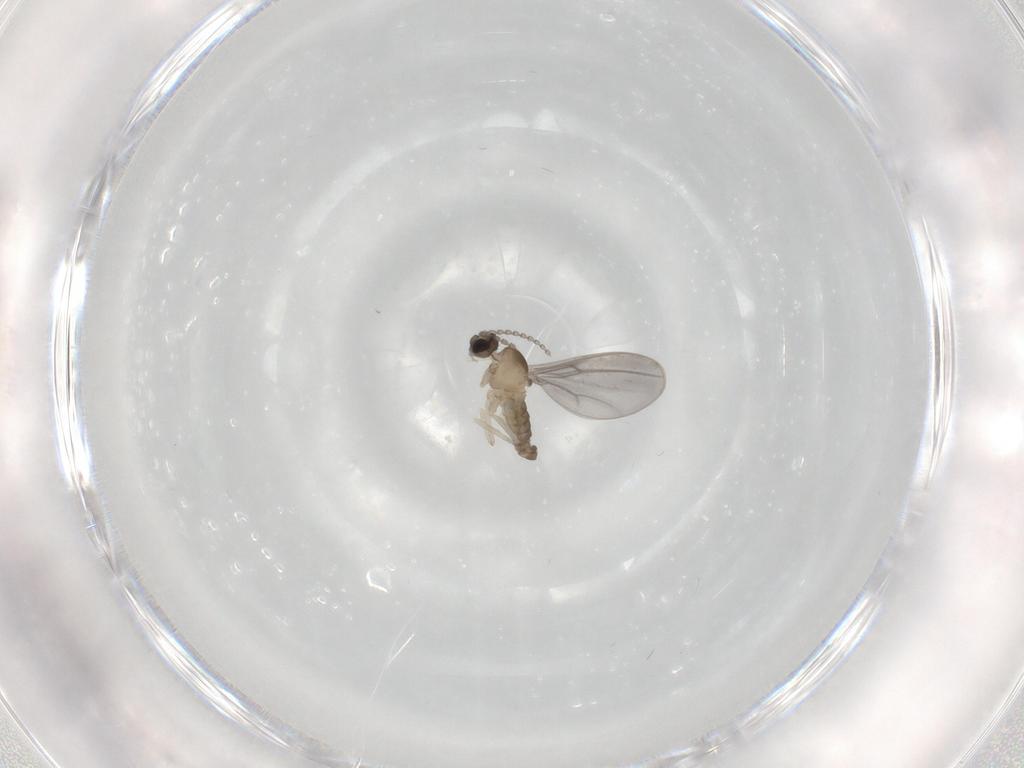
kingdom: Animalia
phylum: Arthropoda
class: Insecta
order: Diptera
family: Cecidomyiidae
